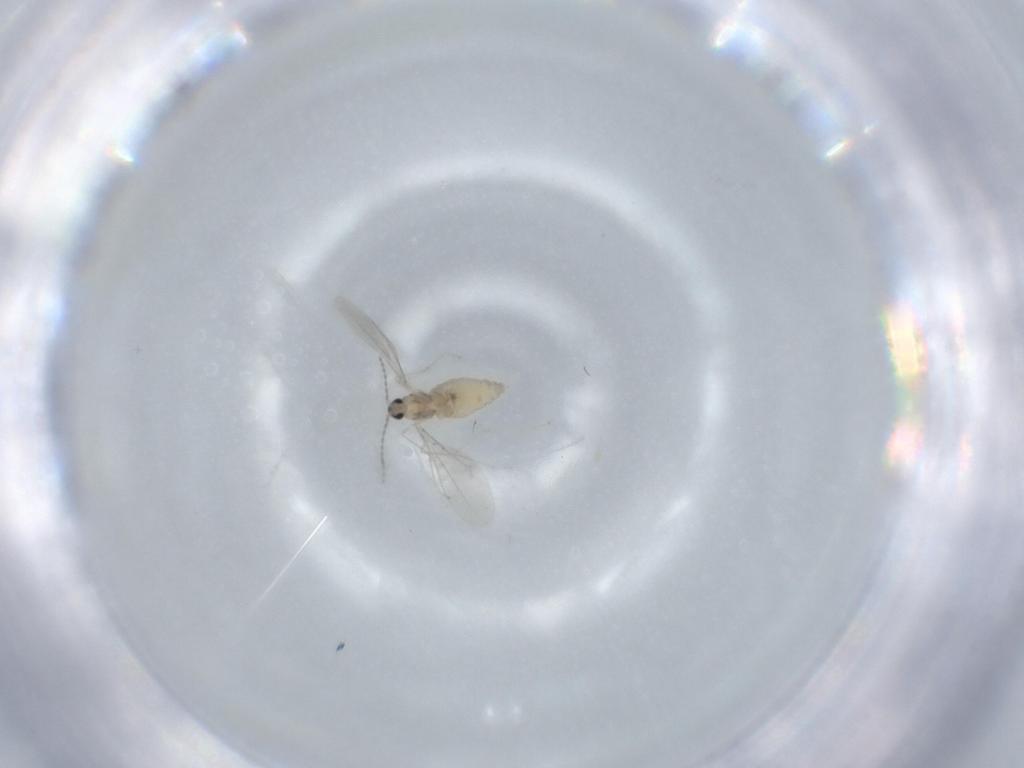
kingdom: Animalia
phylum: Arthropoda
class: Insecta
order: Diptera
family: Cecidomyiidae
